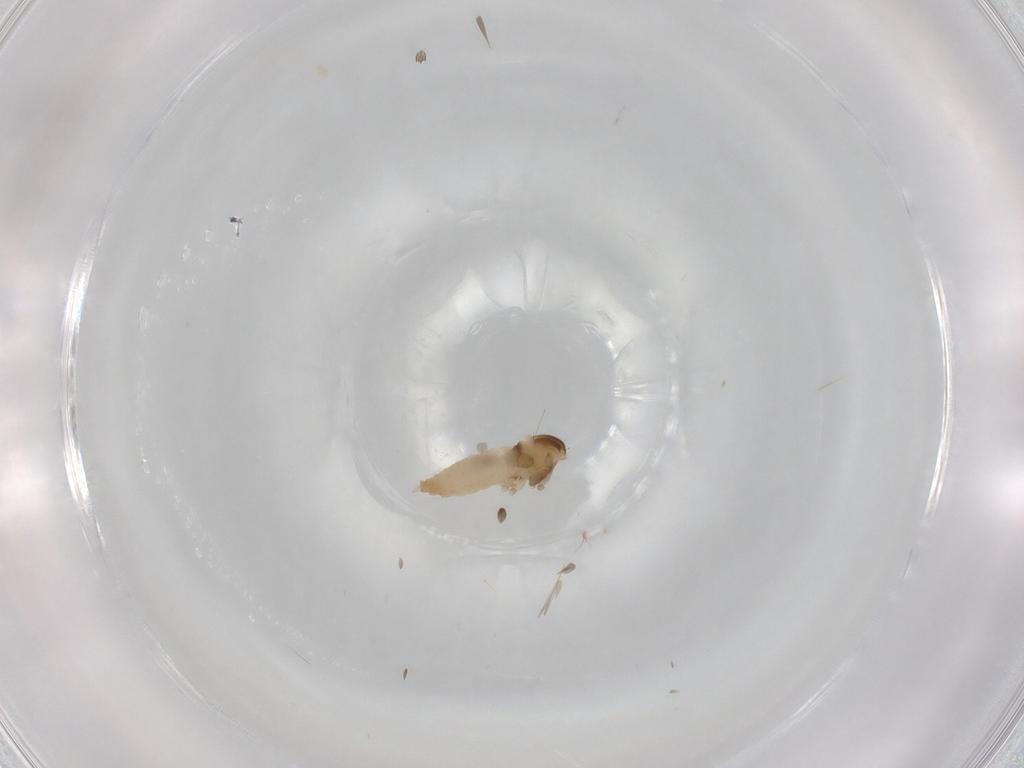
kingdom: Animalia
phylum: Arthropoda
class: Insecta
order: Diptera
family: Cecidomyiidae
